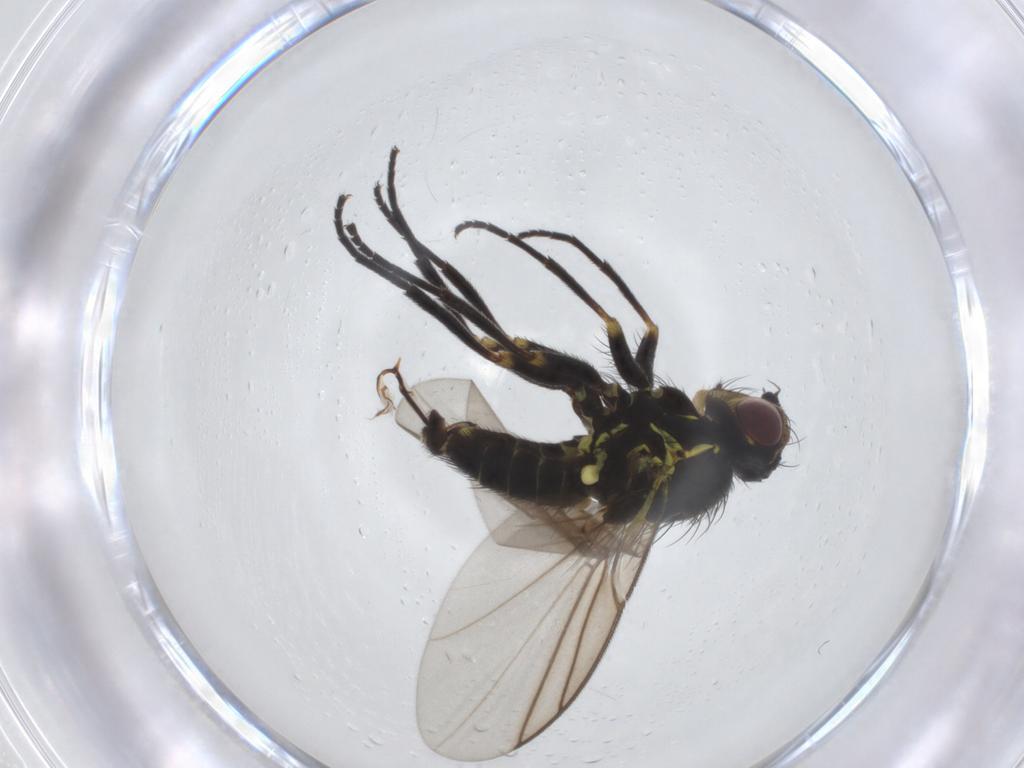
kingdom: Animalia
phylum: Arthropoda
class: Insecta
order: Diptera
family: Agromyzidae
